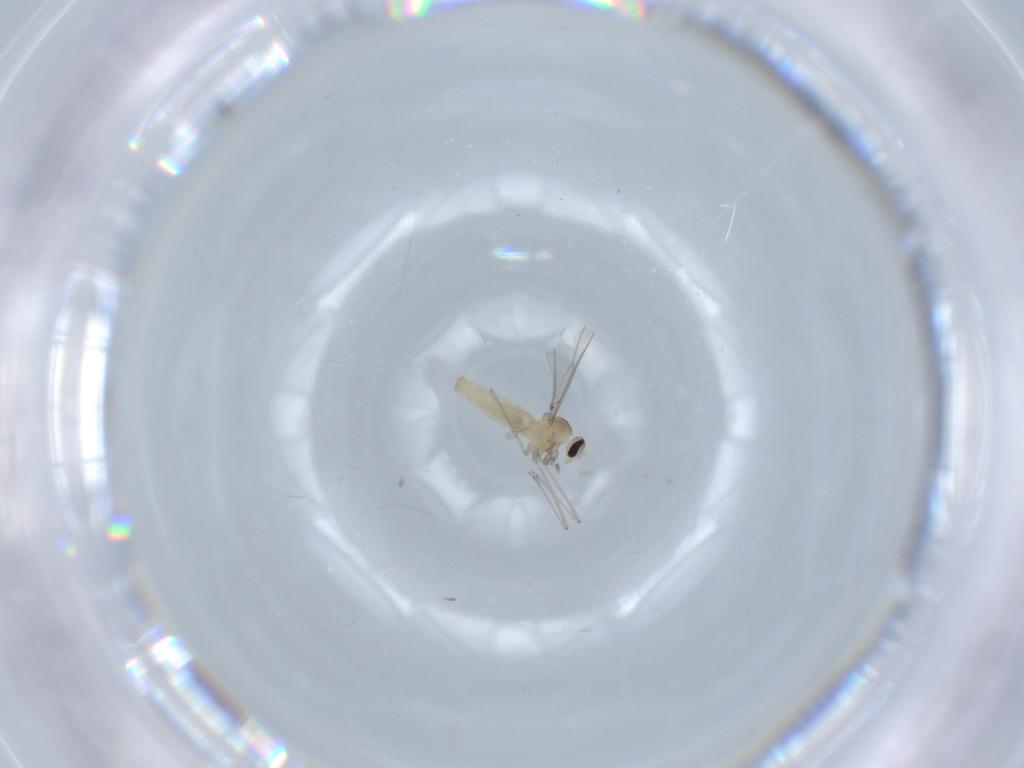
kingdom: Animalia
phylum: Arthropoda
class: Insecta
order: Diptera
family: Cecidomyiidae
